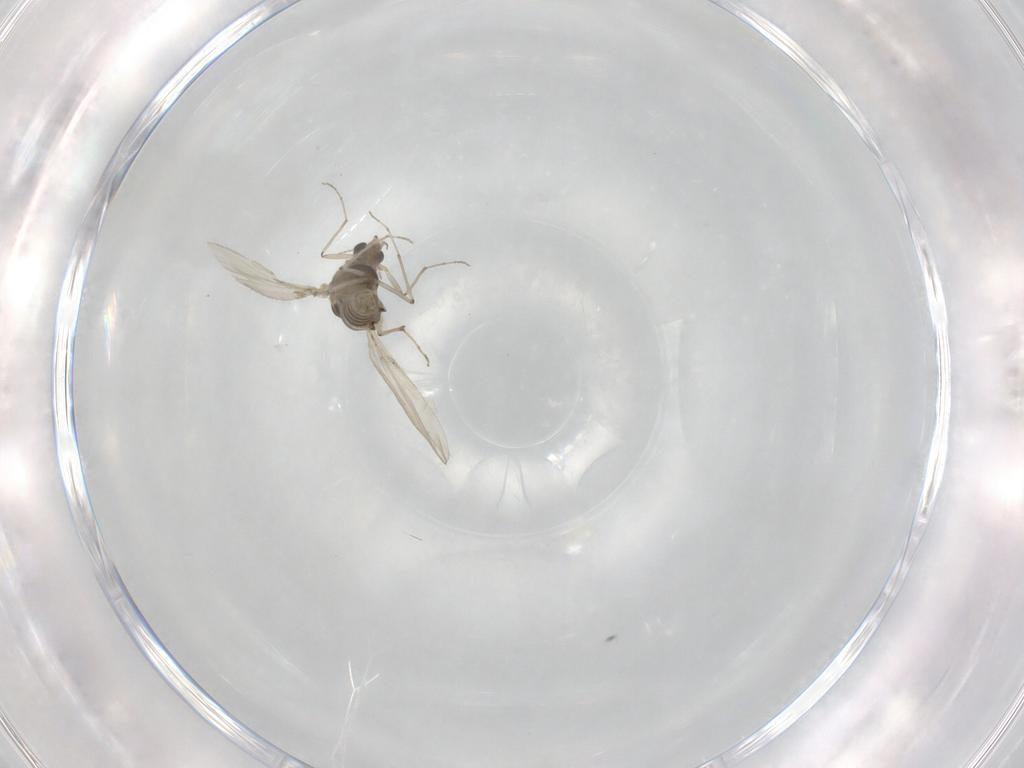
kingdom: Animalia
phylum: Arthropoda
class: Insecta
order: Diptera
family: Chironomidae
